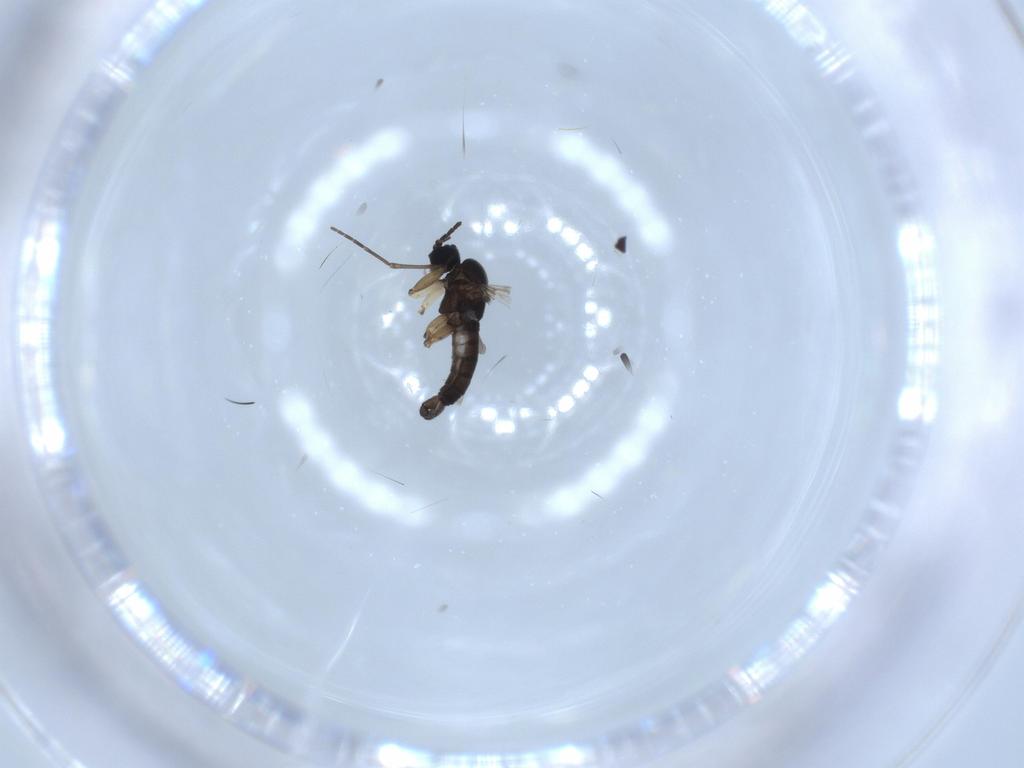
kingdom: Animalia
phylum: Arthropoda
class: Insecta
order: Diptera
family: Sciaridae
